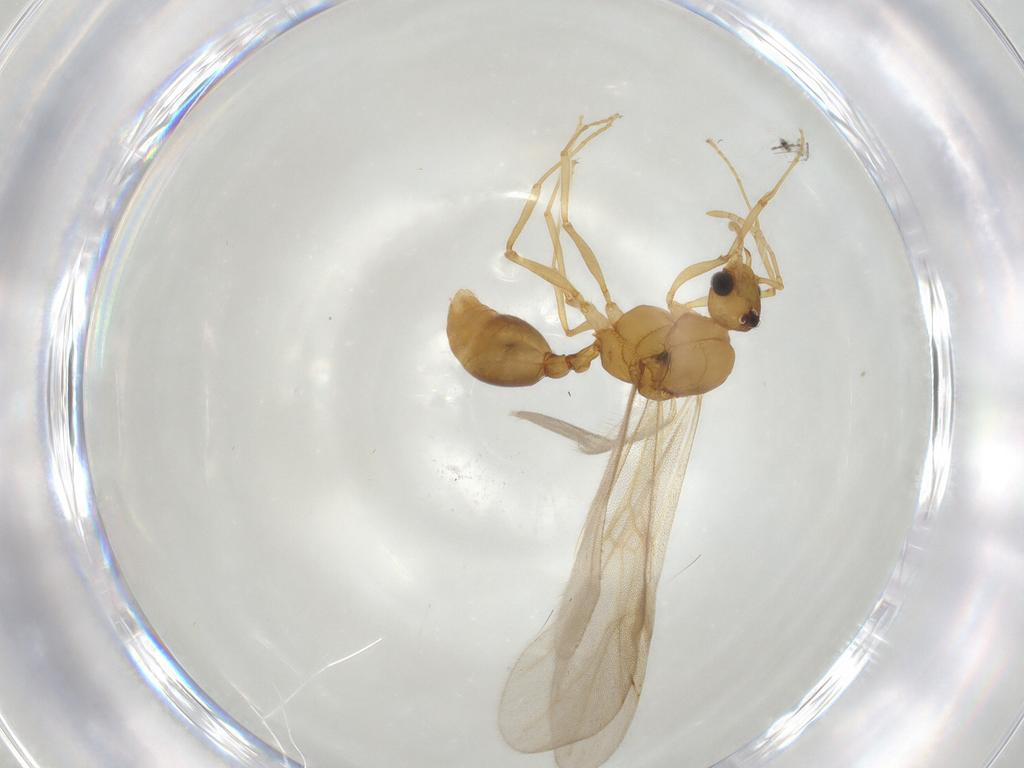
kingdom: Animalia
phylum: Arthropoda
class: Insecta
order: Hymenoptera
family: Formicidae
